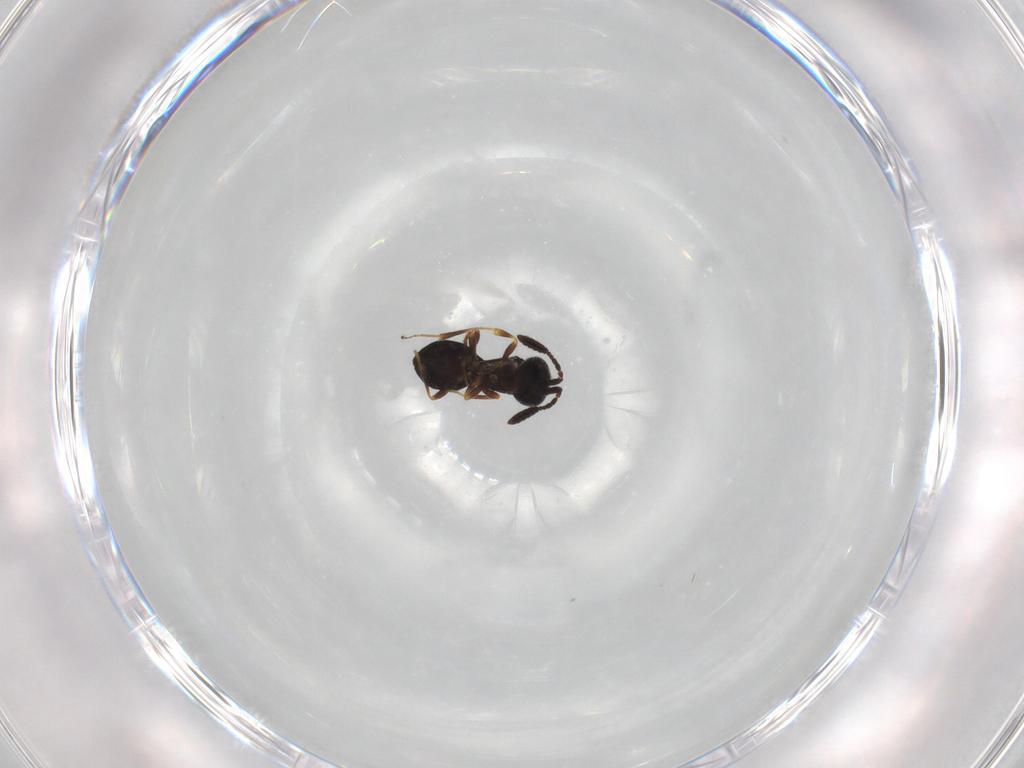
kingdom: Animalia
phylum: Arthropoda
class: Insecta
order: Hymenoptera
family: Scelionidae
